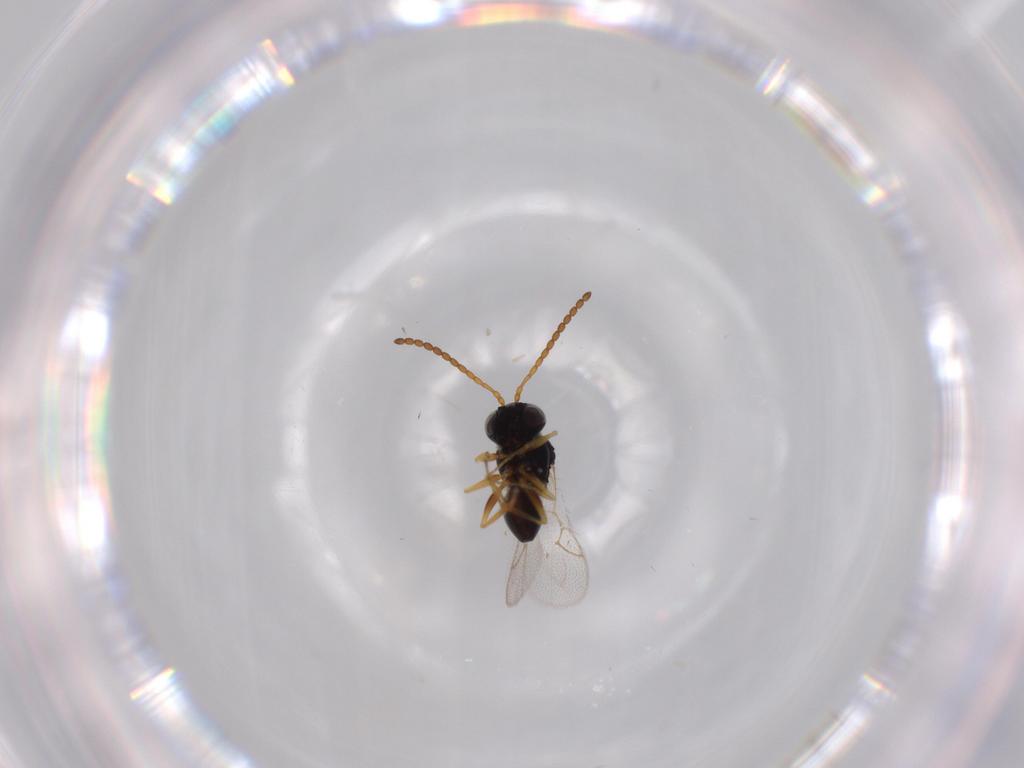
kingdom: Animalia
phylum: Arthropoda
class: Insecta
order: Hymenoptera
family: Figitidae
